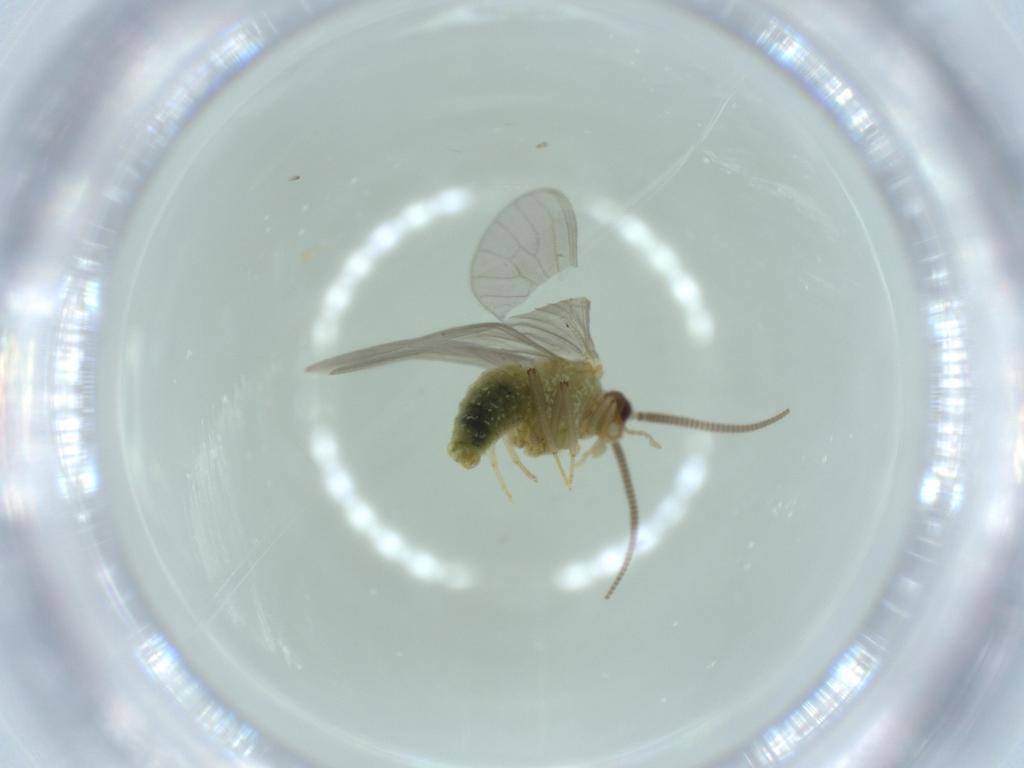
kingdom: Animalia
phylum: Arthropoda
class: Insecta
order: Neuroptera
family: Coniopterygidae
